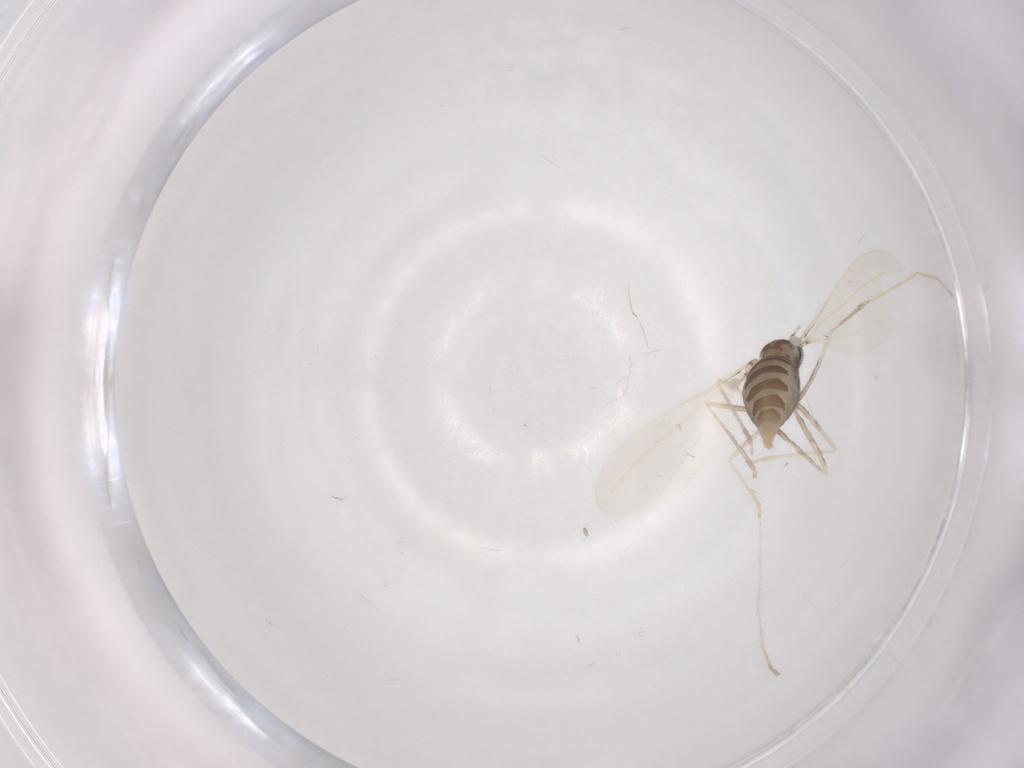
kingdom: Animalia
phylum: Arthropoda
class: Insecta
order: Diptera
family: Cecidomyiidae
